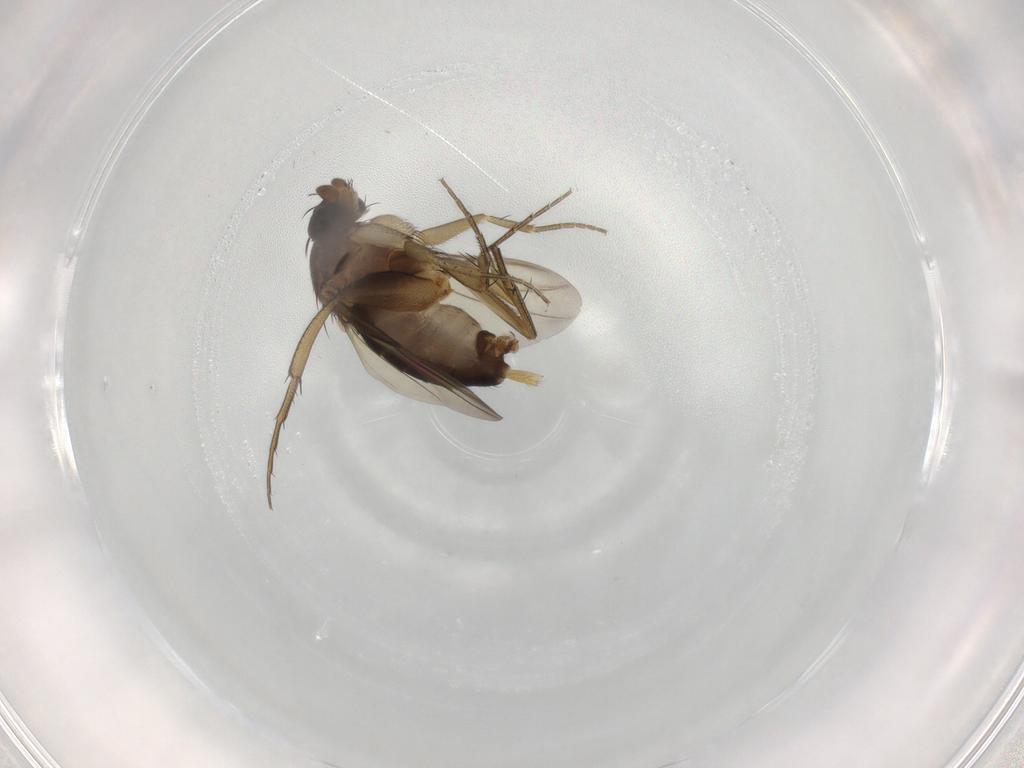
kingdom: Animalia
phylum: Arthropoda
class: Insecta
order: Diptera
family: Phoridae
